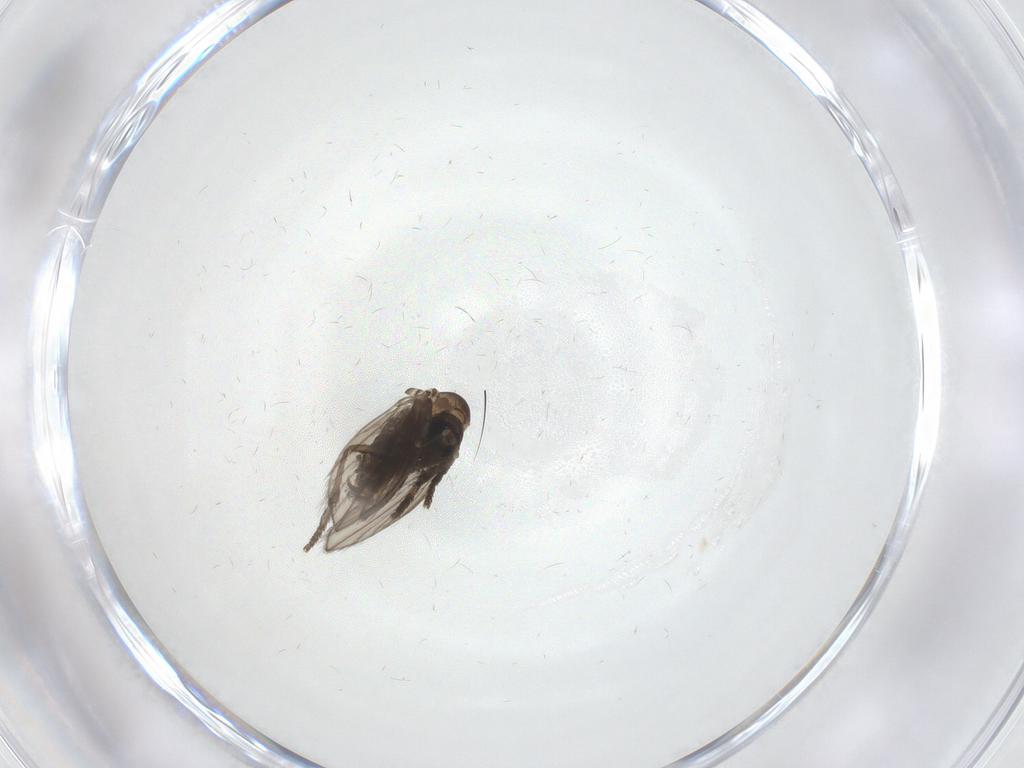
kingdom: Animalia
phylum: Arthropoda
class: Insecta
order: Diptera
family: Psychodidae
